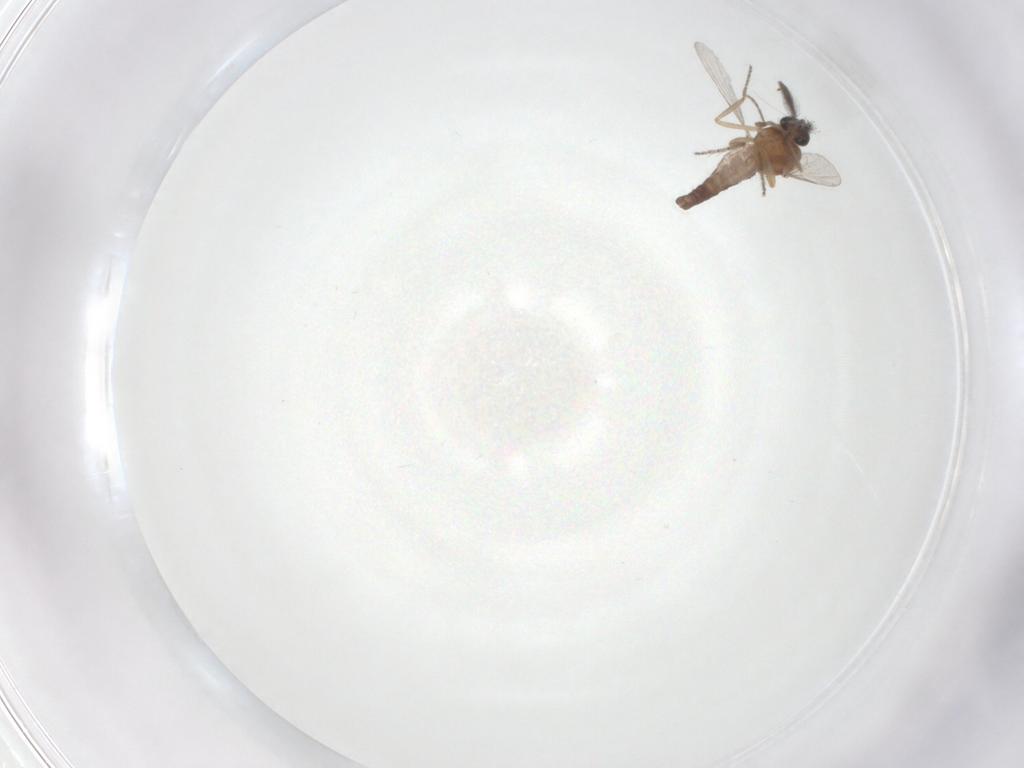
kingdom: Animalia
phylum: Arthropoda
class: Insecta
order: Diptera
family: Ceratopogonidae
